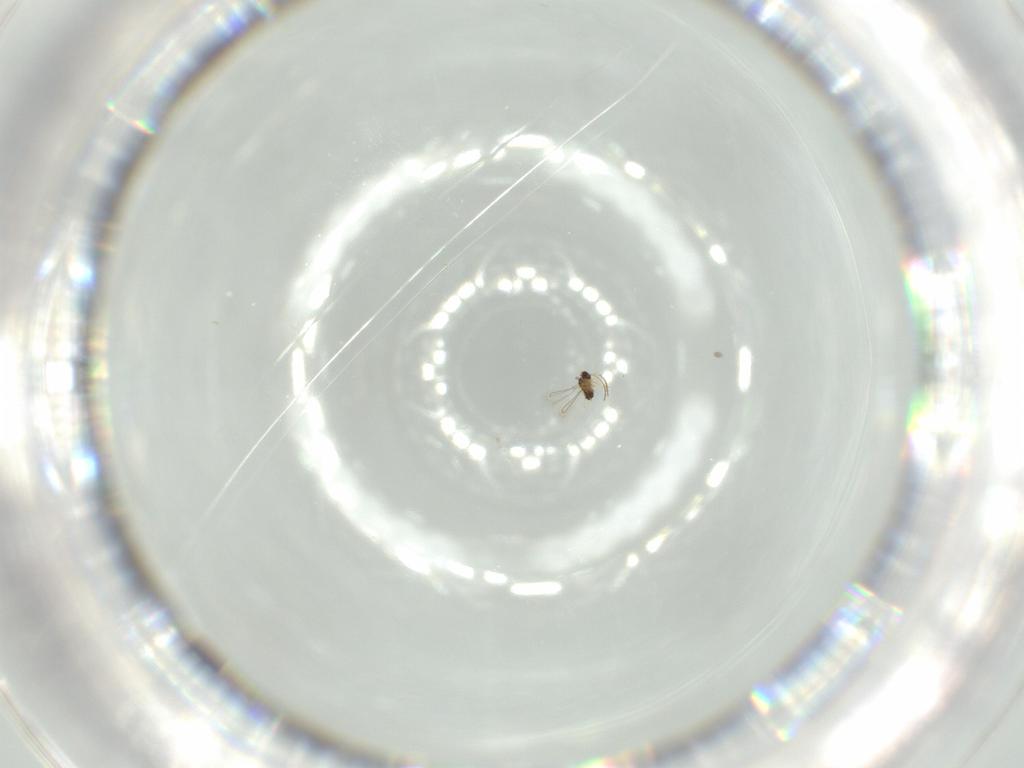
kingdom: Animalia
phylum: Arthropoda
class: Insecta
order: Hymenoptera
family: Mymaridae
